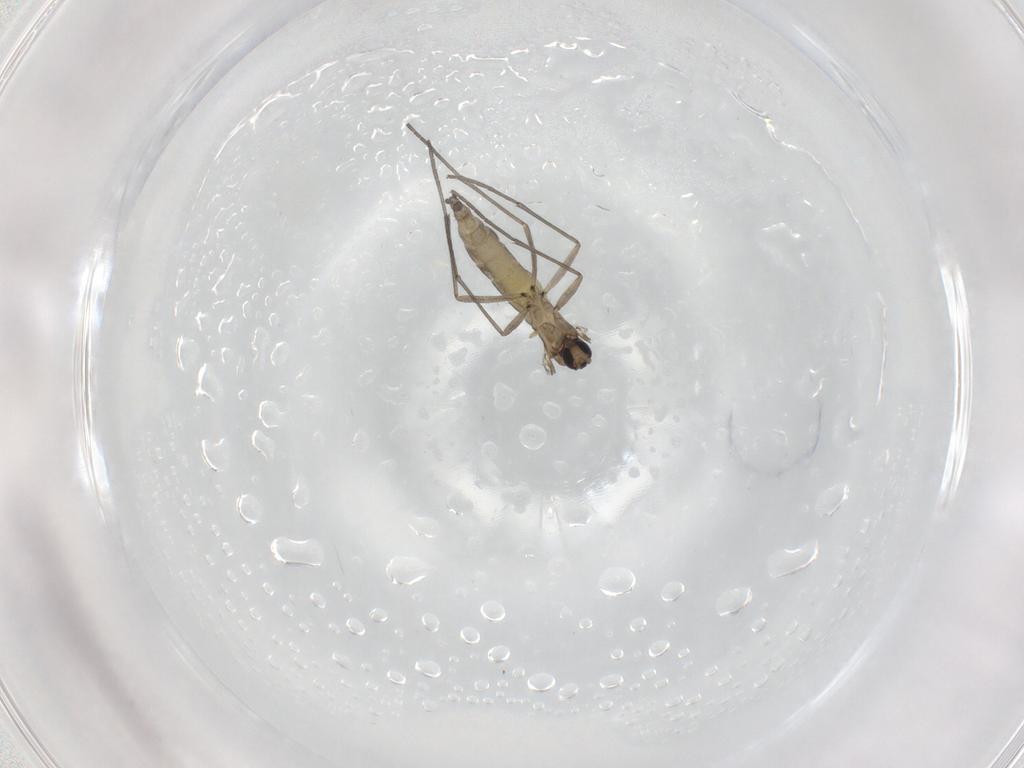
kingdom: Animalia
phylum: Arthropoda
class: Insecta
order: Diptera
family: Sciaridae
